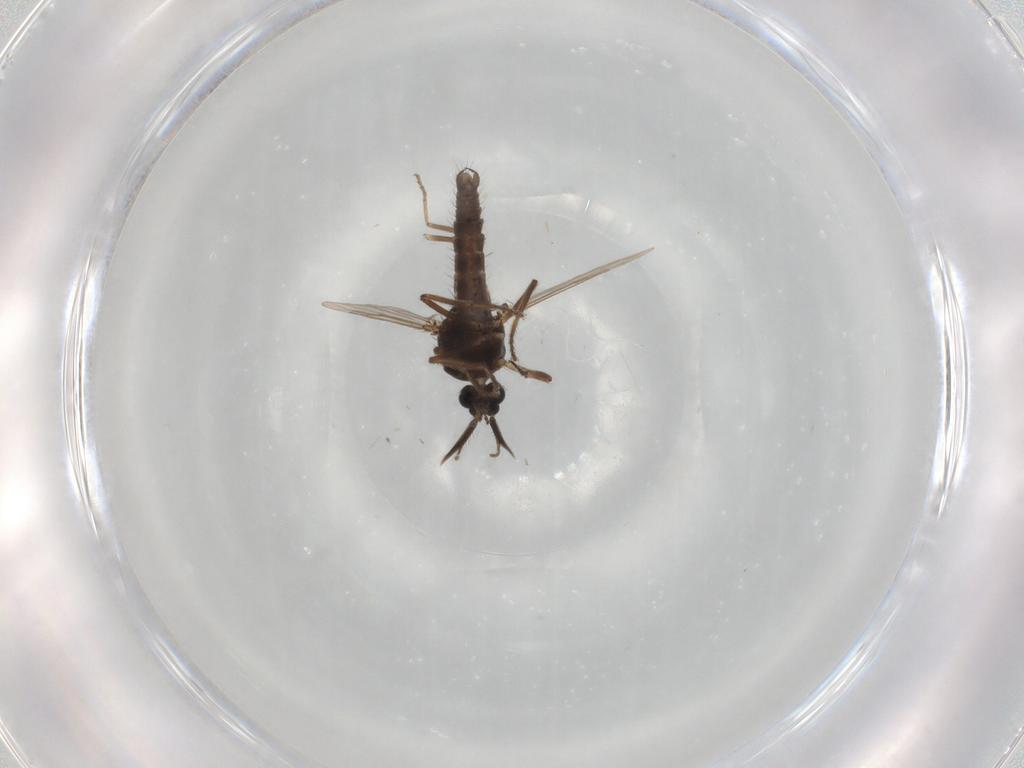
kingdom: Animalia
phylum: Arthropoda
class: Insecta
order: Diptera
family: Ceratopogonidae
